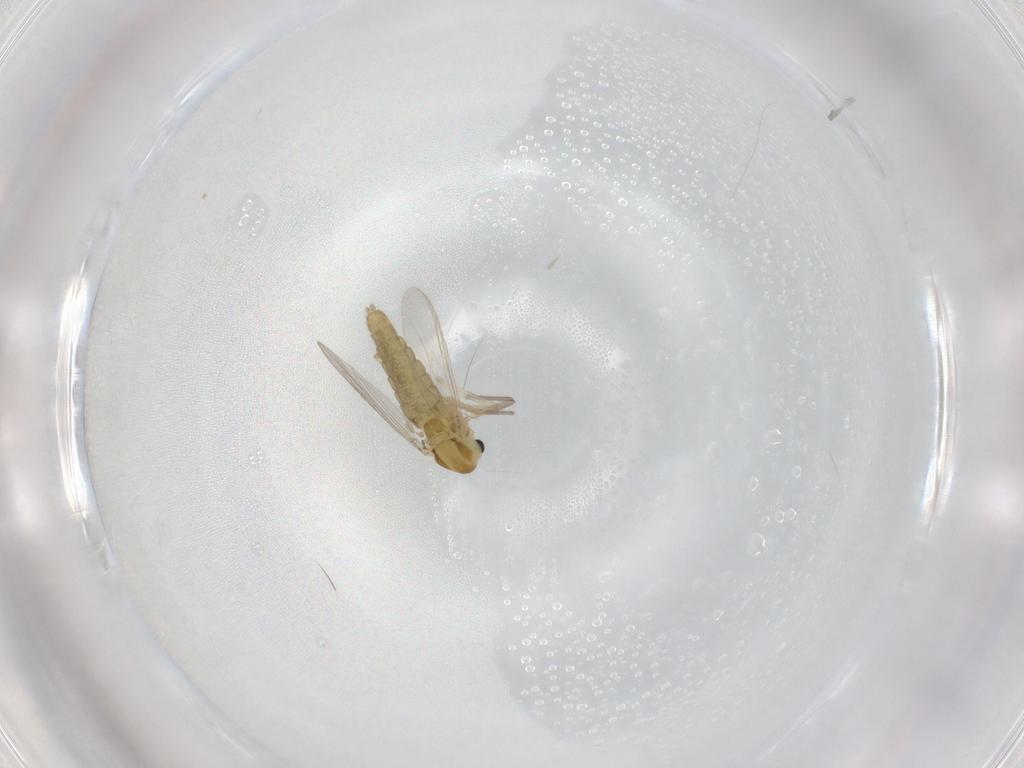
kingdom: Animalia
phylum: Arthropoda
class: Insecta
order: Diptera
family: Chironomidae
